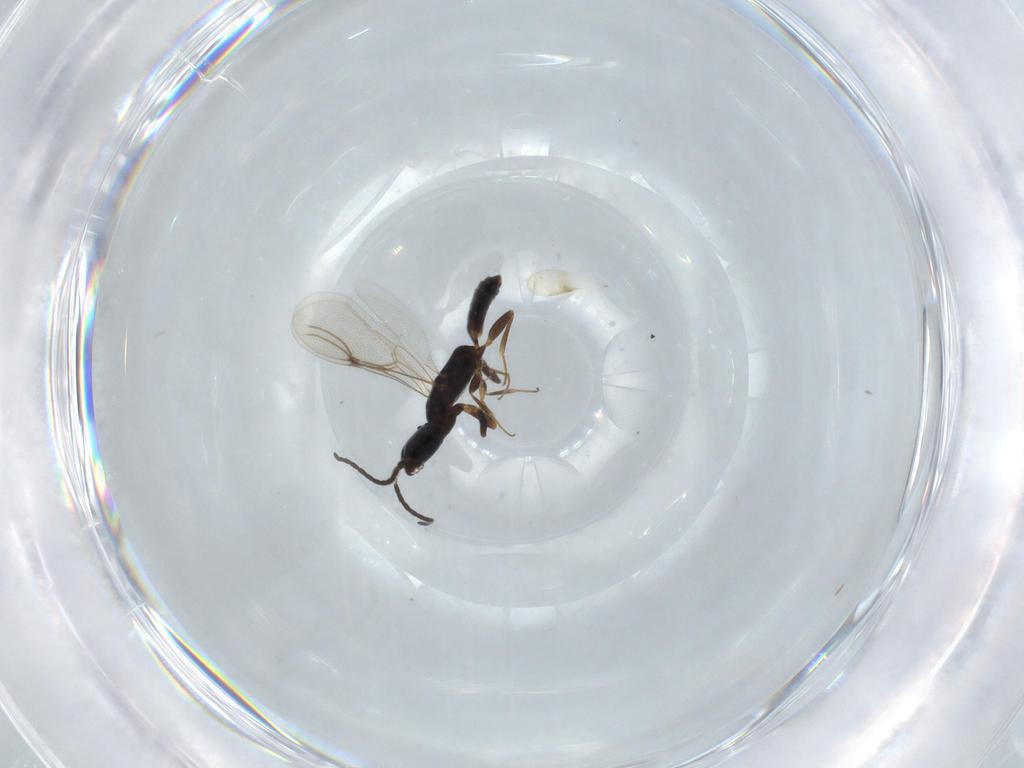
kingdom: Animalia
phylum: Arthropoda
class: Insecta
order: Hymenoptera
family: Bethylidae
